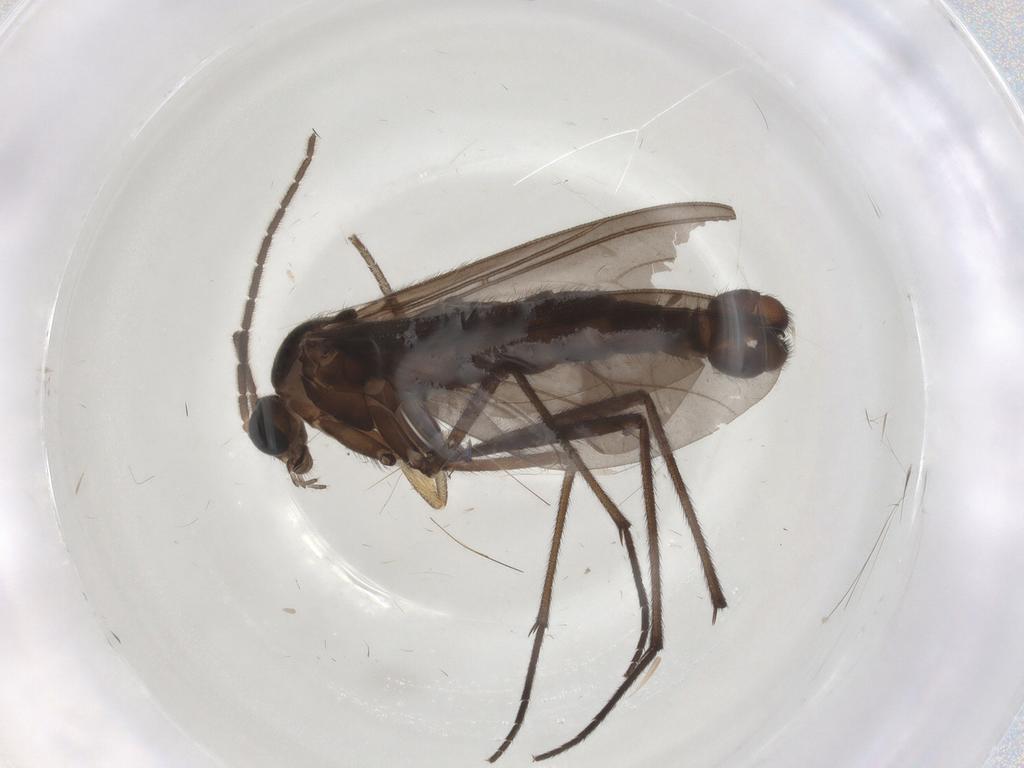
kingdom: Animalia
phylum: Arthropoda
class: Insecta
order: Diptera
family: Sciaridae
